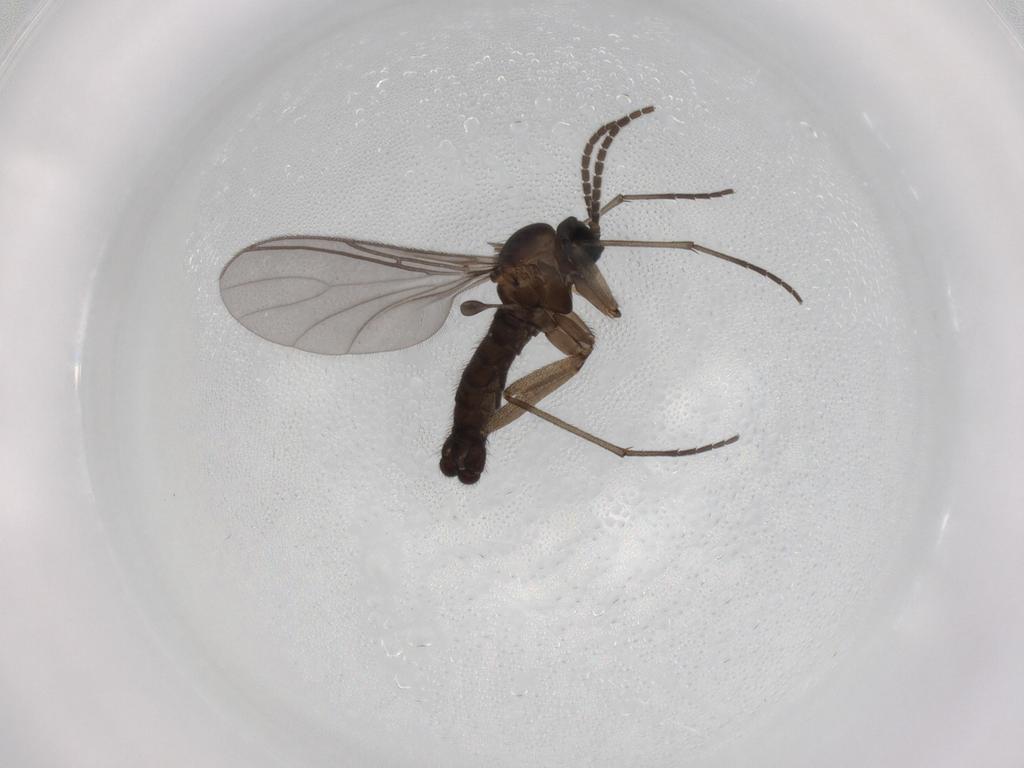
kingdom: Animalia
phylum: Arthropoda
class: Insecta
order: Diptera
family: Sciaridae
